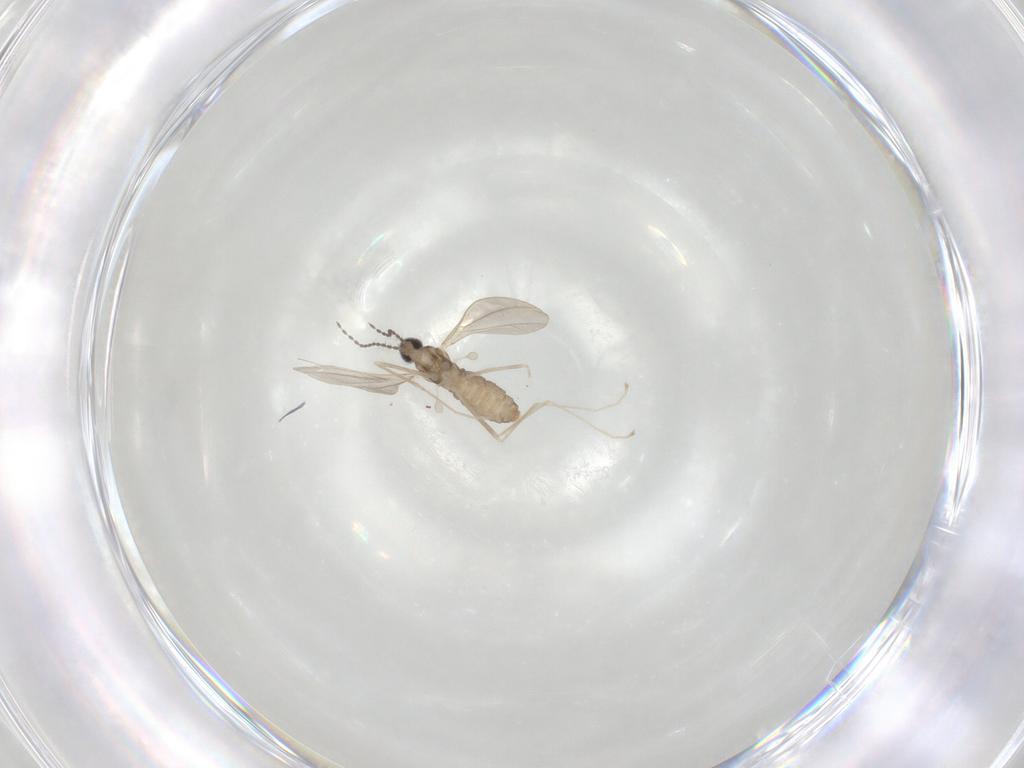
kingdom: Animalia
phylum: Arthropoda
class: Insecta
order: Diptera
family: Cecidomyiidae
